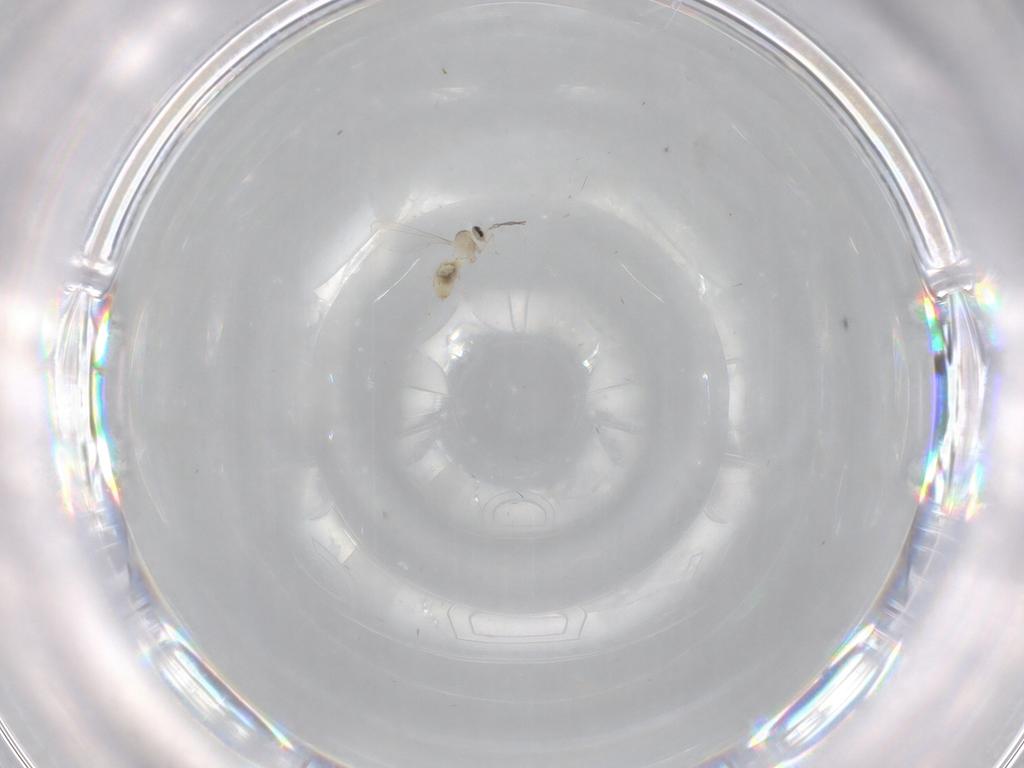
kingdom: Animalia
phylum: Arthropoda
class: Insecta
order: Diptera
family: Cecidomyiidae
